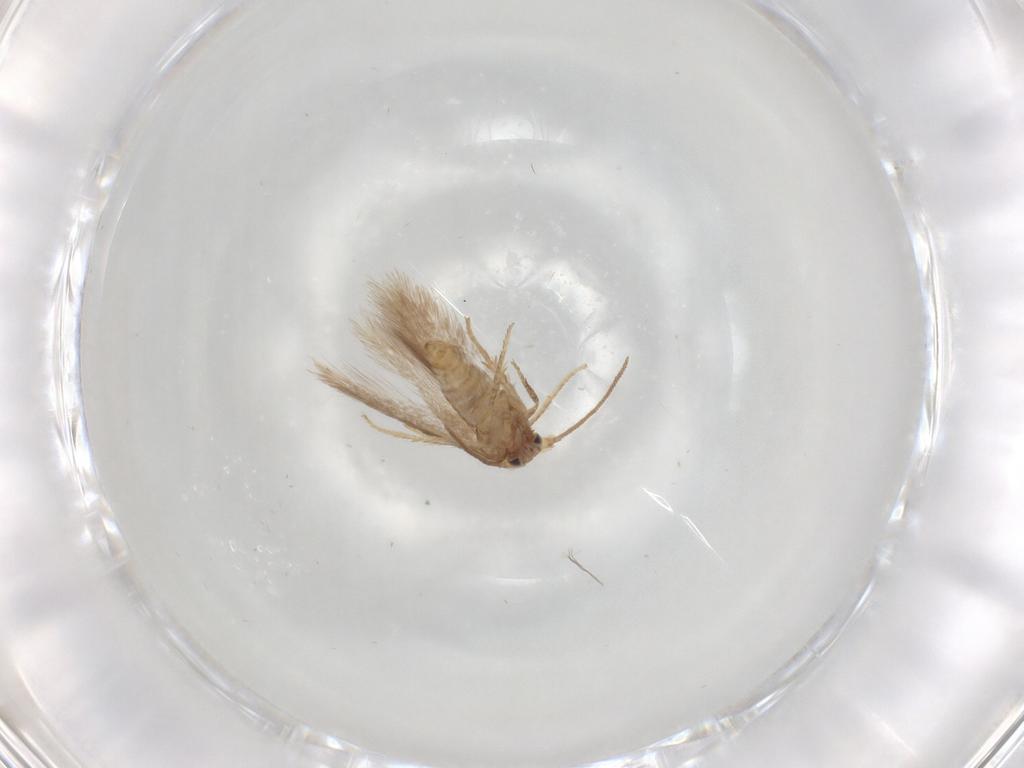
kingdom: Animalia
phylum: Arthropoda
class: Insecta
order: Lepidoptera
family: Nepticulidae
